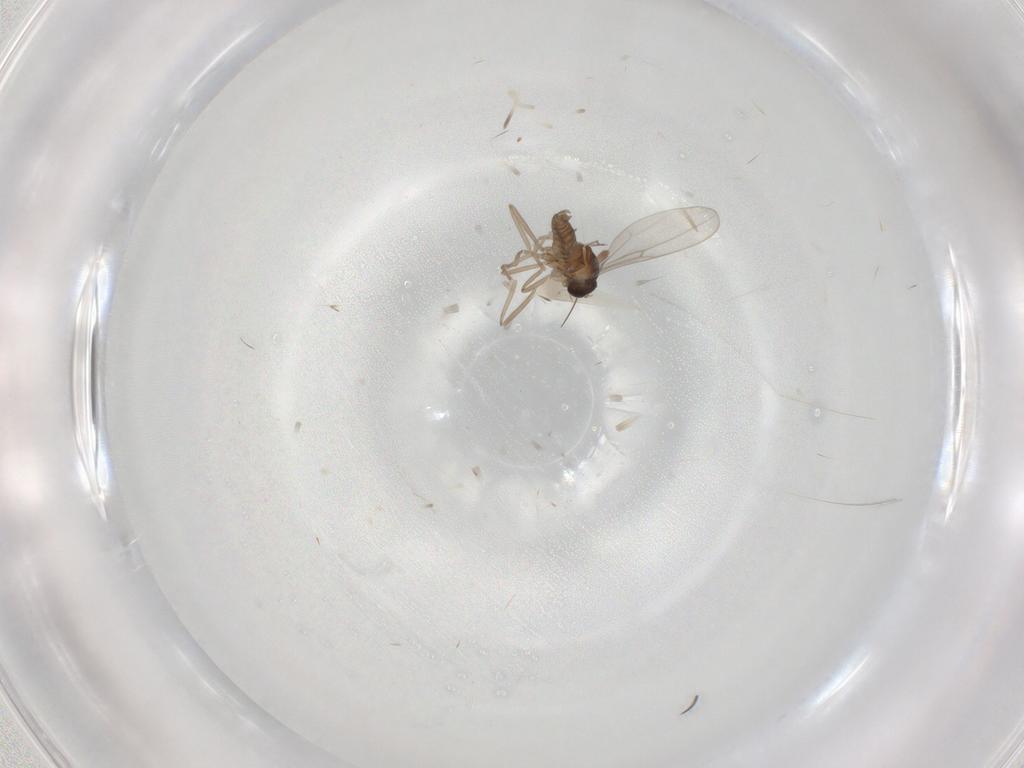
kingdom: Animalia
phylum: Arthropoda
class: Insecta
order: Diptera
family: Cecidomyiidae
